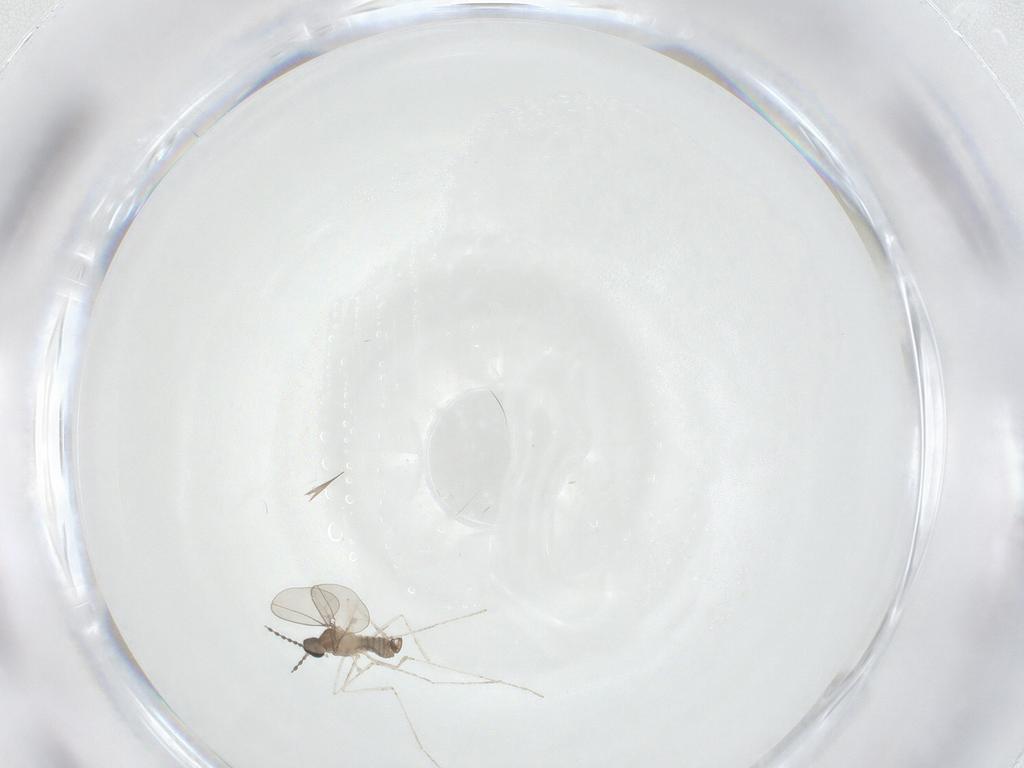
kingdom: Animalia
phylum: Arthropoda
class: Insecta
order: Diptera
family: Cecidomyiidae
